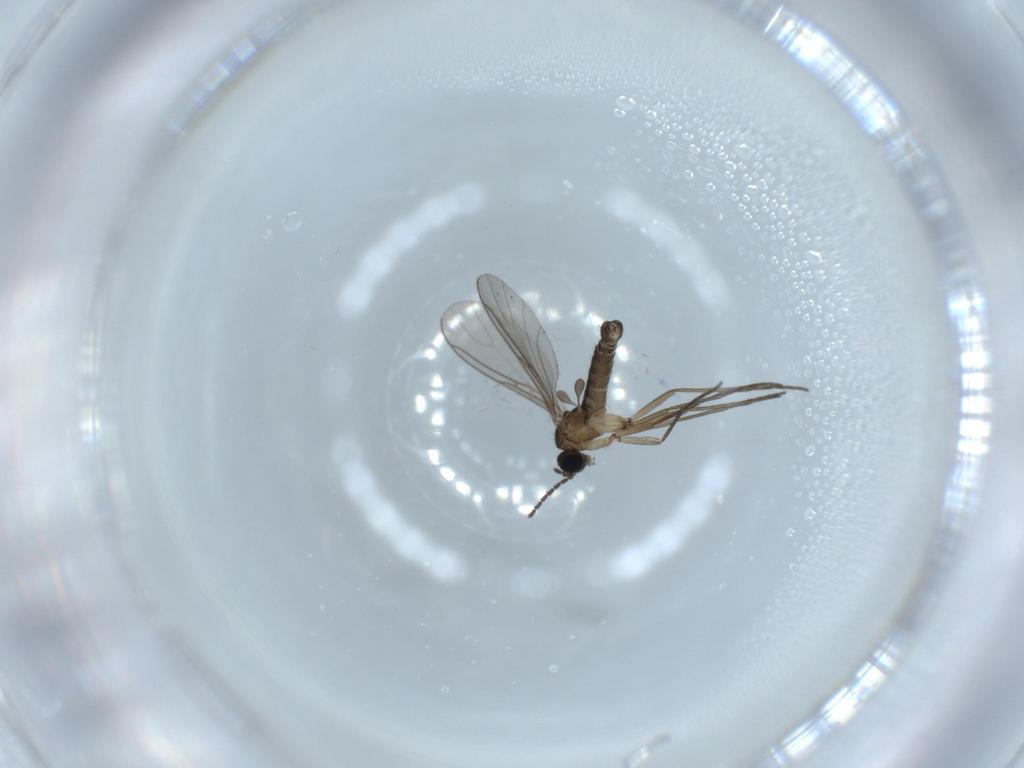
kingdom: Animalia
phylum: Arthropoda
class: Insecta
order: Diptera
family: Sciaridae
